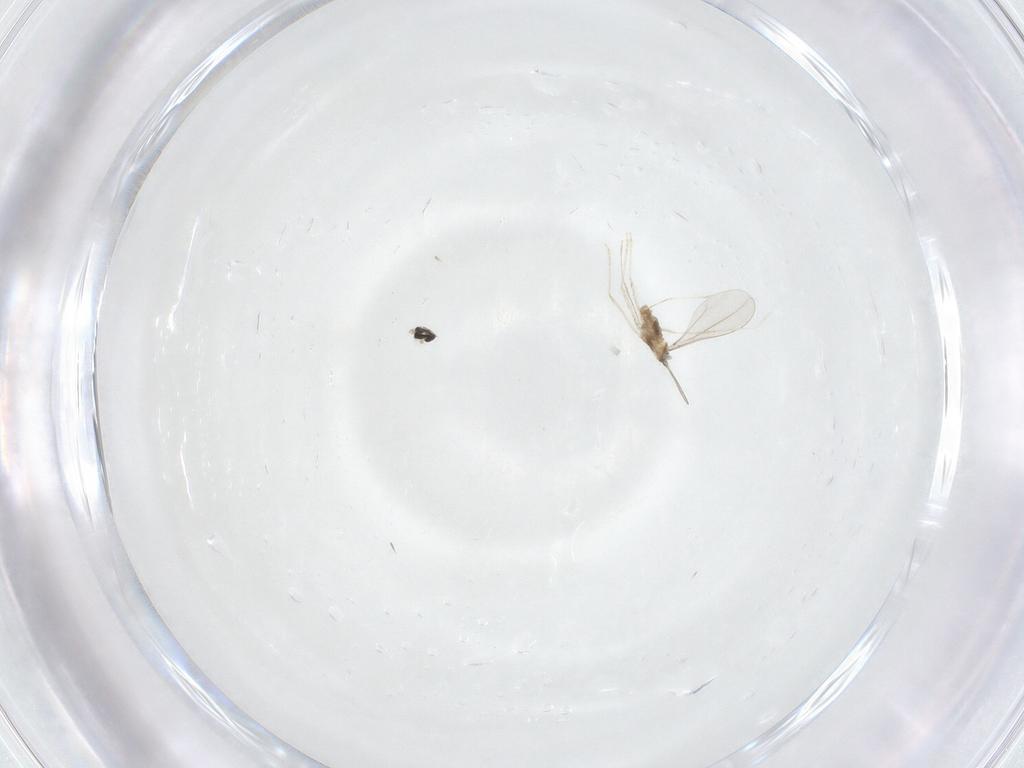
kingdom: Animalia
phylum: Arthropoda
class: Insecta
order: Diptera
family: Cecidomyiidae
